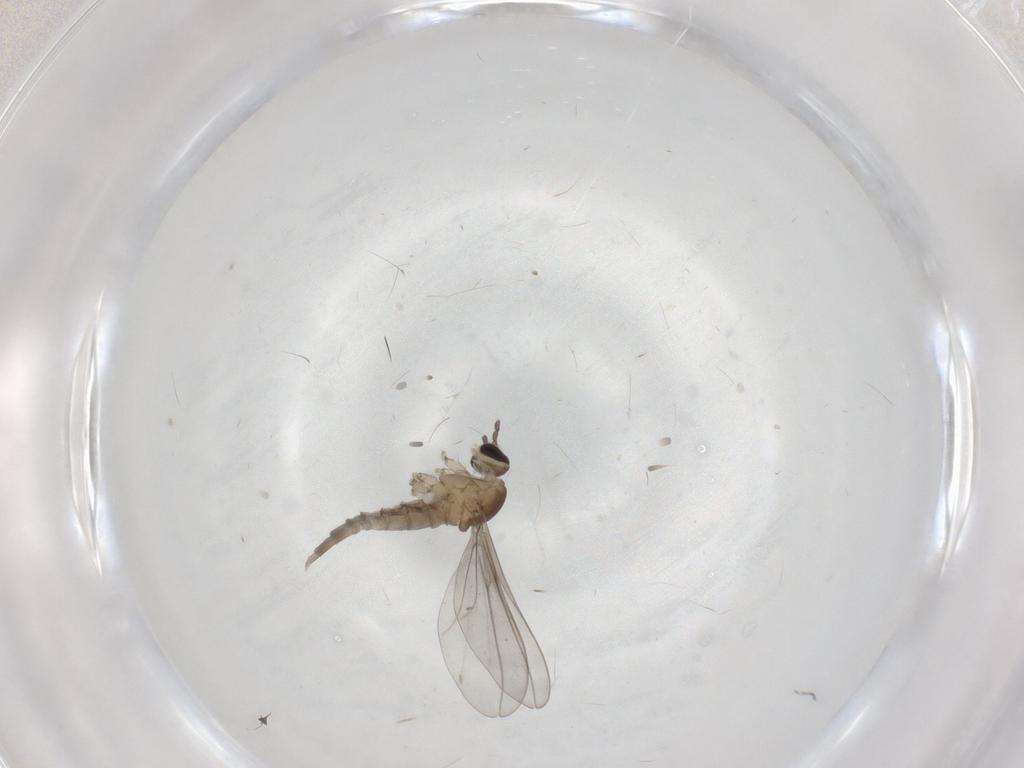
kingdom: Animalia
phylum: Arthropoda
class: Insecta
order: Diptera
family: Cecidomyiidae
